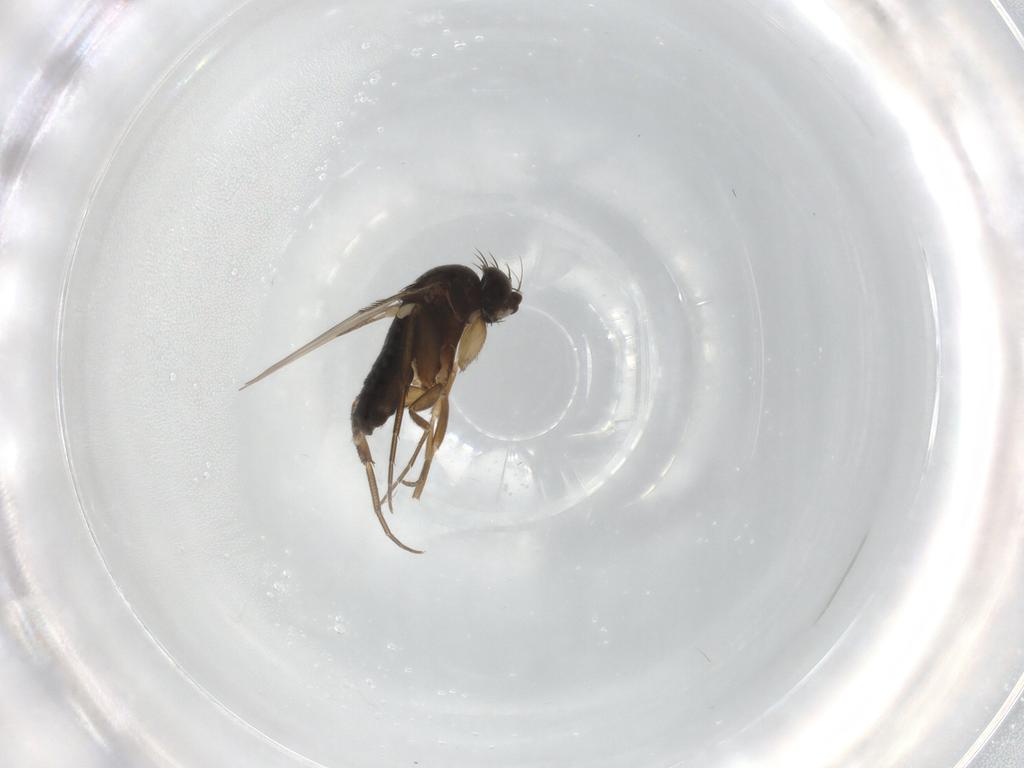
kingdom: Animalia
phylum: Arthropoda
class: Insecta
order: Diptera
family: Phoridae
